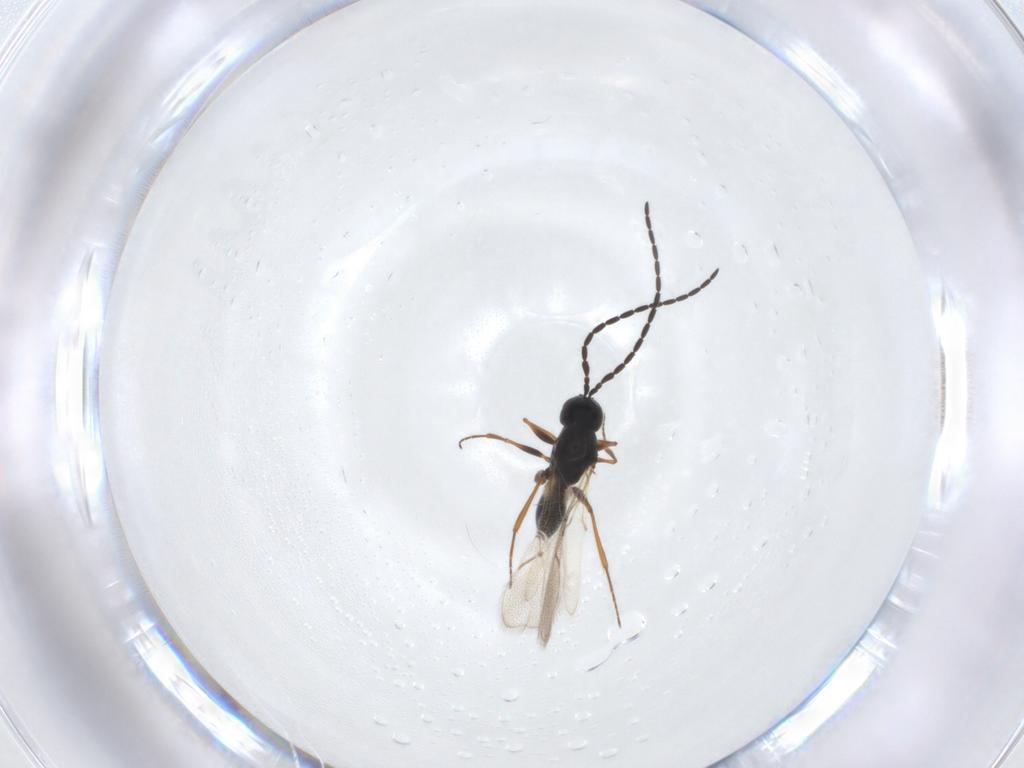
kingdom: Animalia
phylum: Arthropoda
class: Insecta
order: Hymenoptera
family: Figitidae
